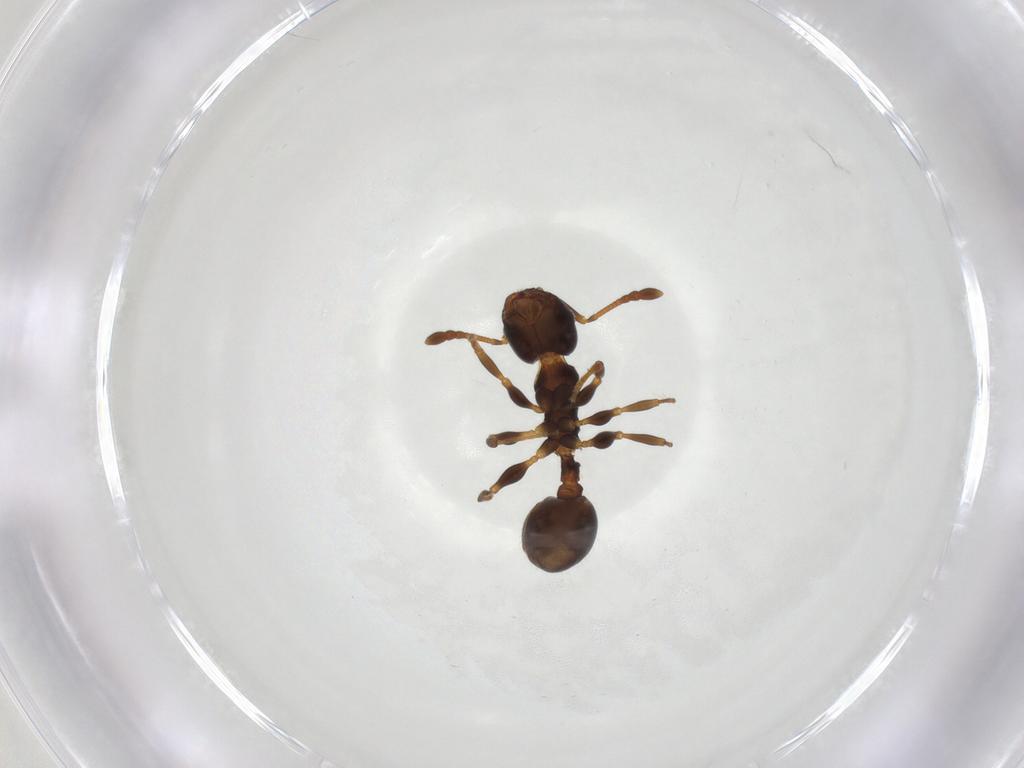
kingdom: Animalia
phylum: Arthropoda
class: Insecta
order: Hymenoptera
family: Formicidae
